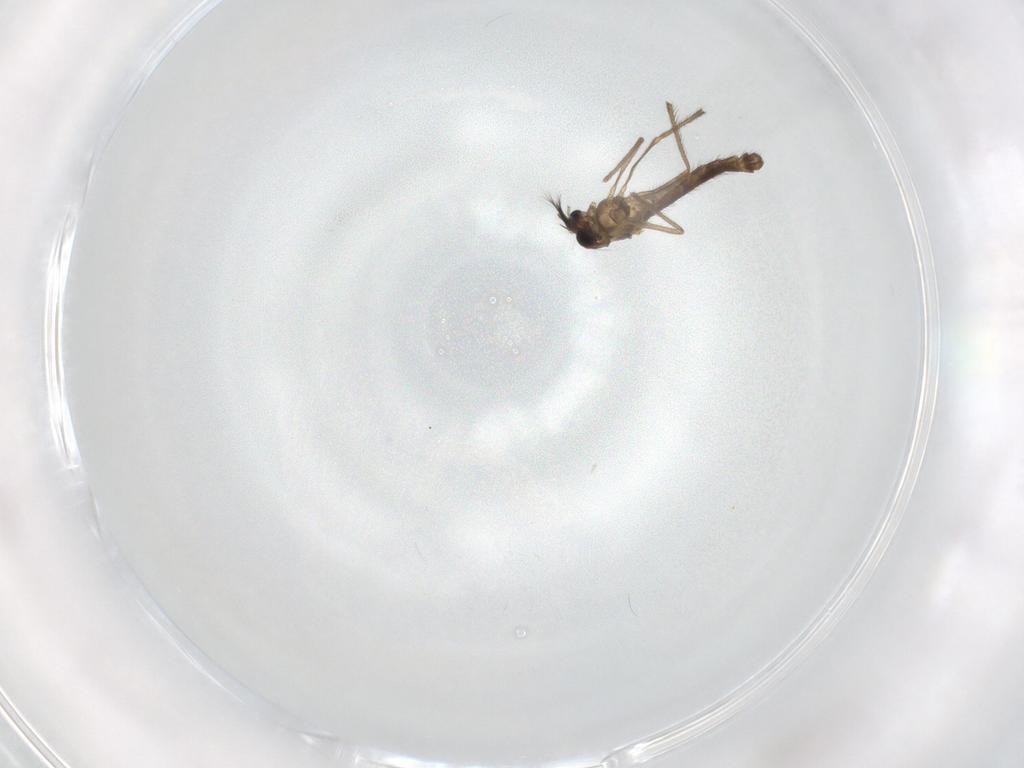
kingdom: Animalia
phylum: Arthropoda
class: Insecta
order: Diptera
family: Chironomidae
